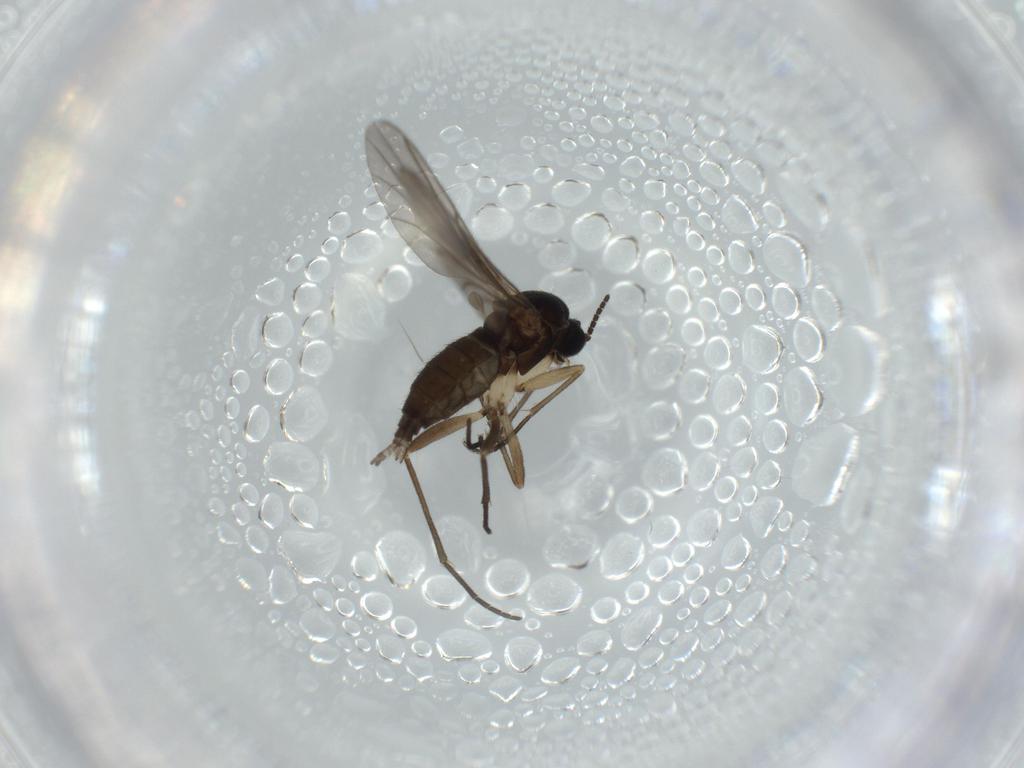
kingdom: Animalia
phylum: Arthropoda
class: Insecta
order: Diptera
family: Sciaridae
